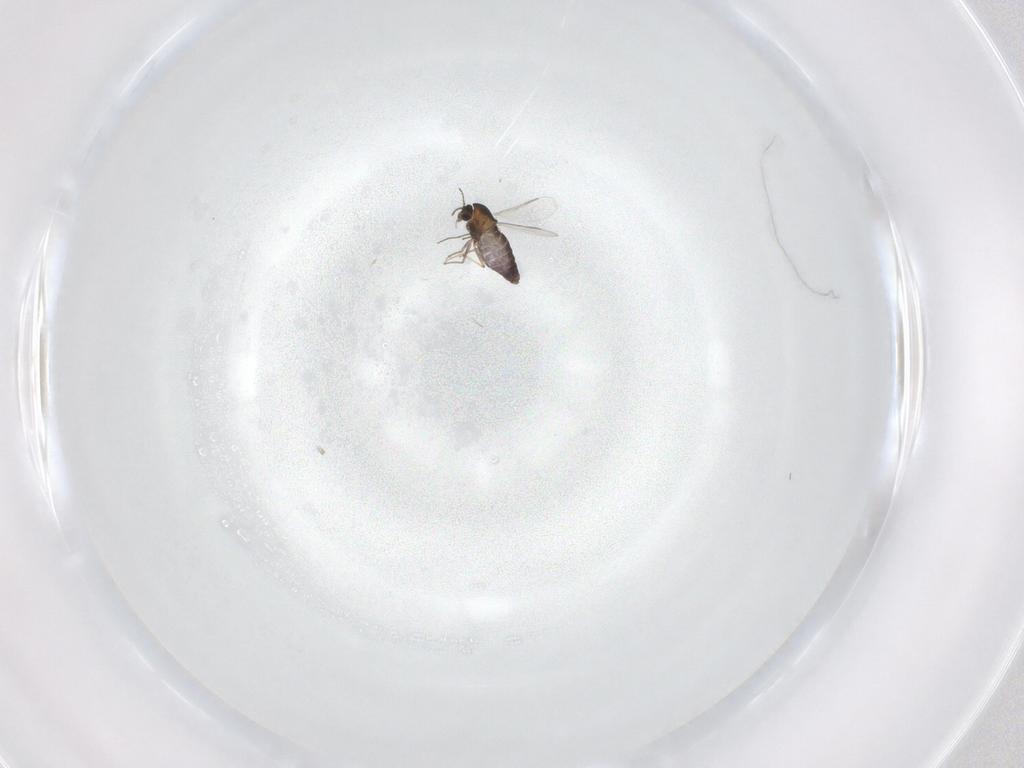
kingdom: Animalia
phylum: Arthropoda
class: Insecta
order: Diptera
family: Chironomidae
